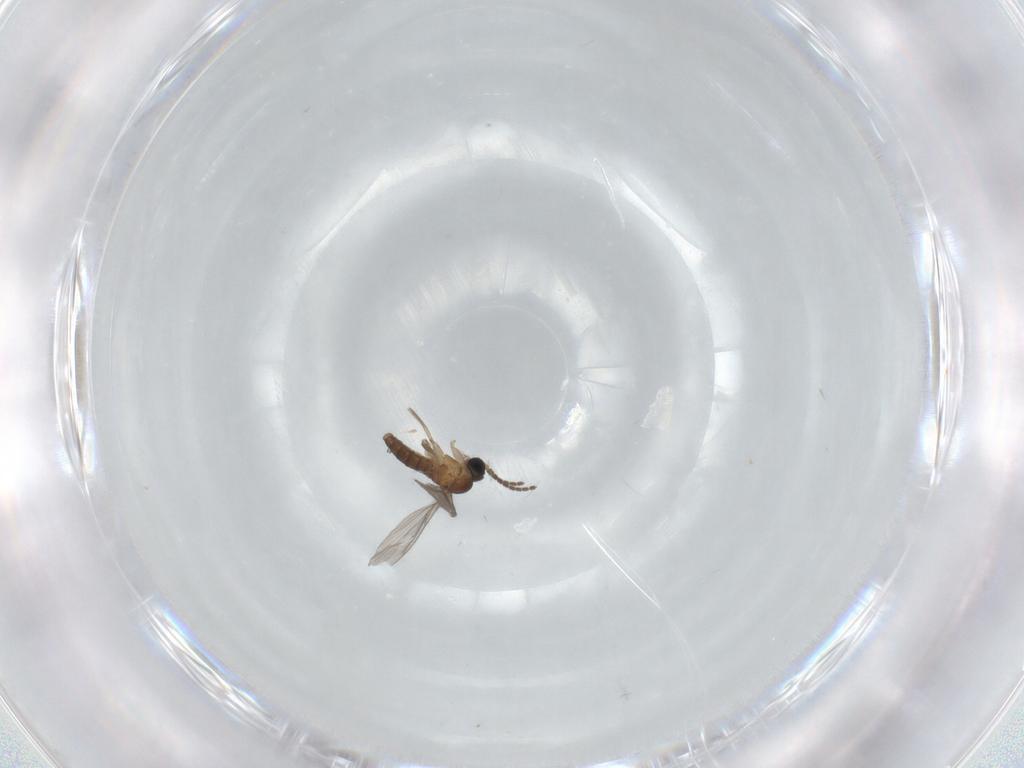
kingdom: Animalia
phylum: Arthropoda
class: Insecta
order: Diptera
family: Sciaridae
